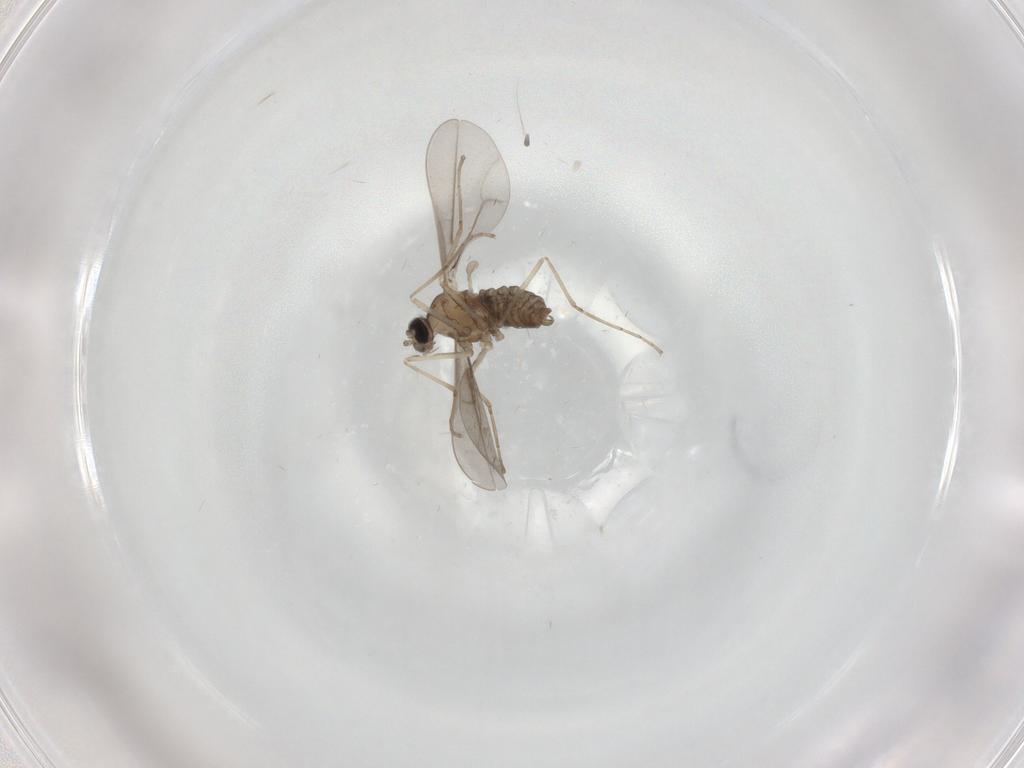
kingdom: Animalia
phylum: Arthropoda
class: Insecta
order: Diptera
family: Cecidomyiidae
